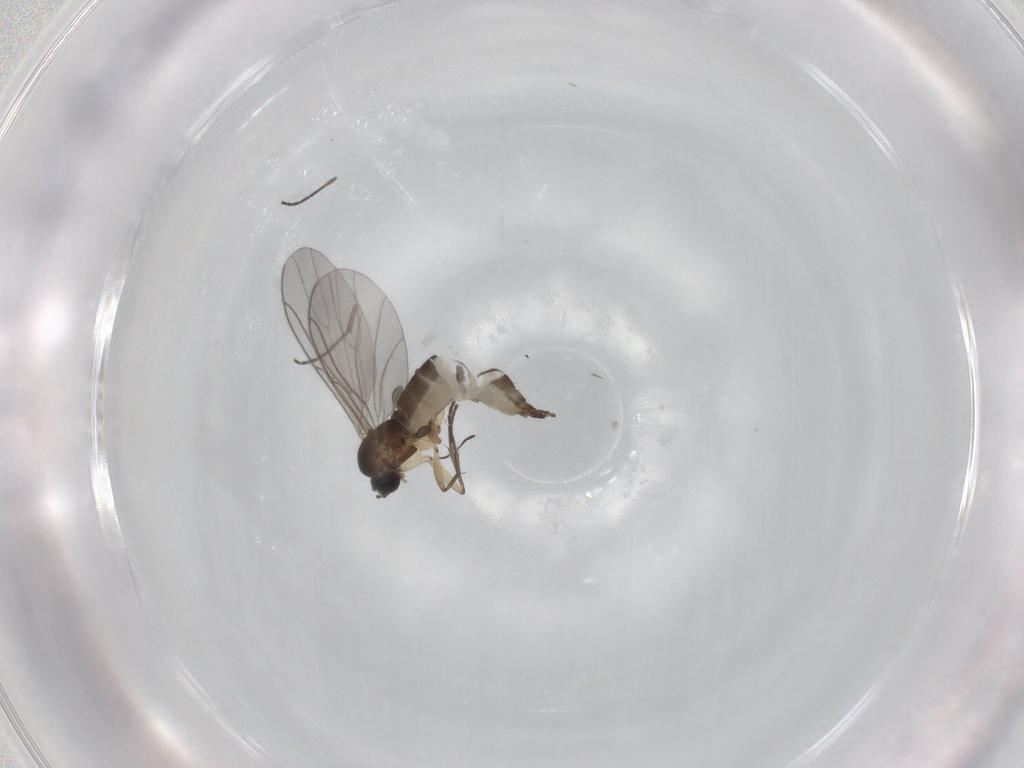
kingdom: Animalia
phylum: Arthropoda
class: Insecta
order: Diptera
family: Sciaridae
